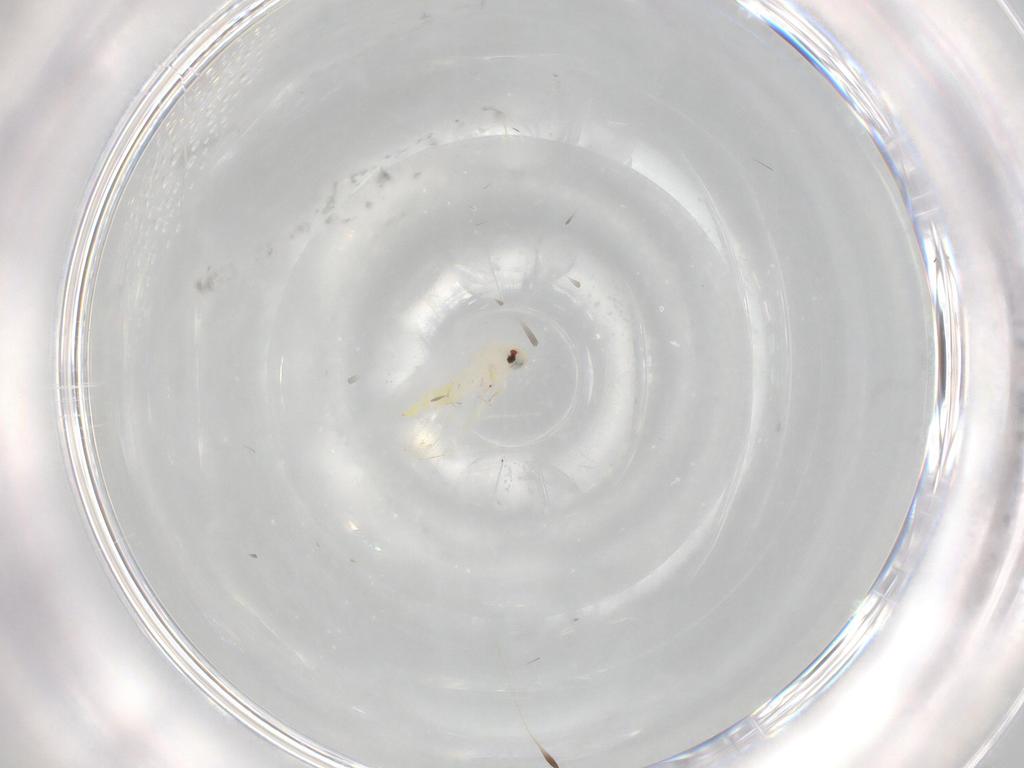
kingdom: Animalia
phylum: Arthropoda
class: Insecta
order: Hemiptera
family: Aleyrodidae
